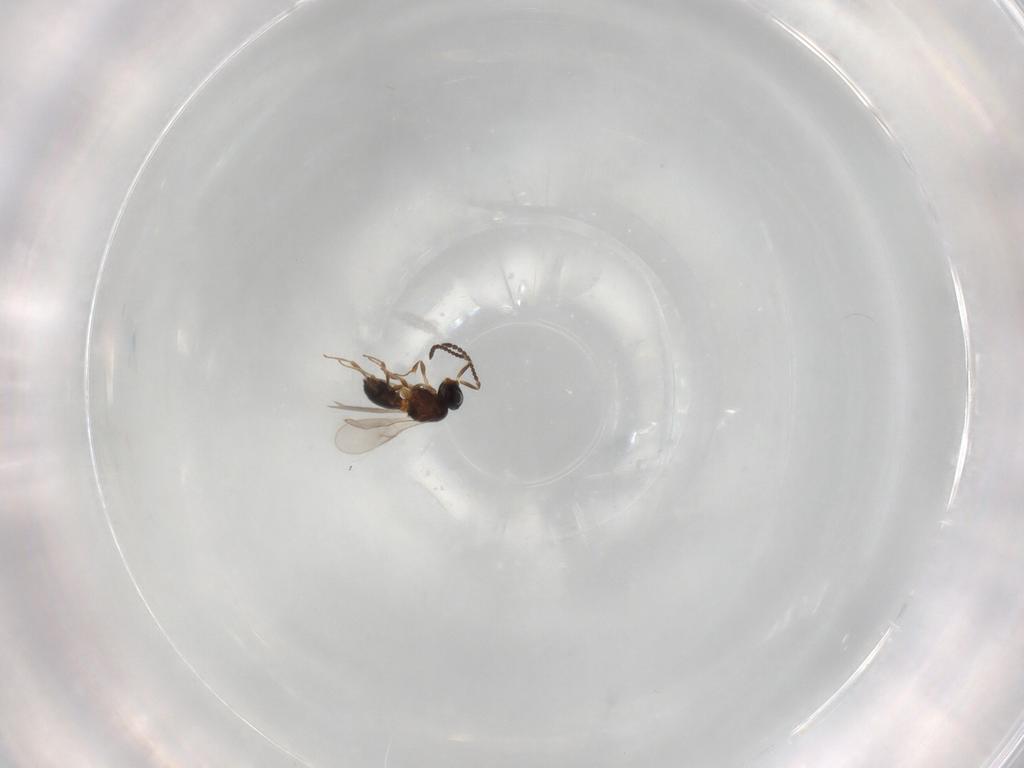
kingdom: Animalia
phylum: Arthropoda
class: Insecta
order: Hymenoptera
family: Scelionidae
